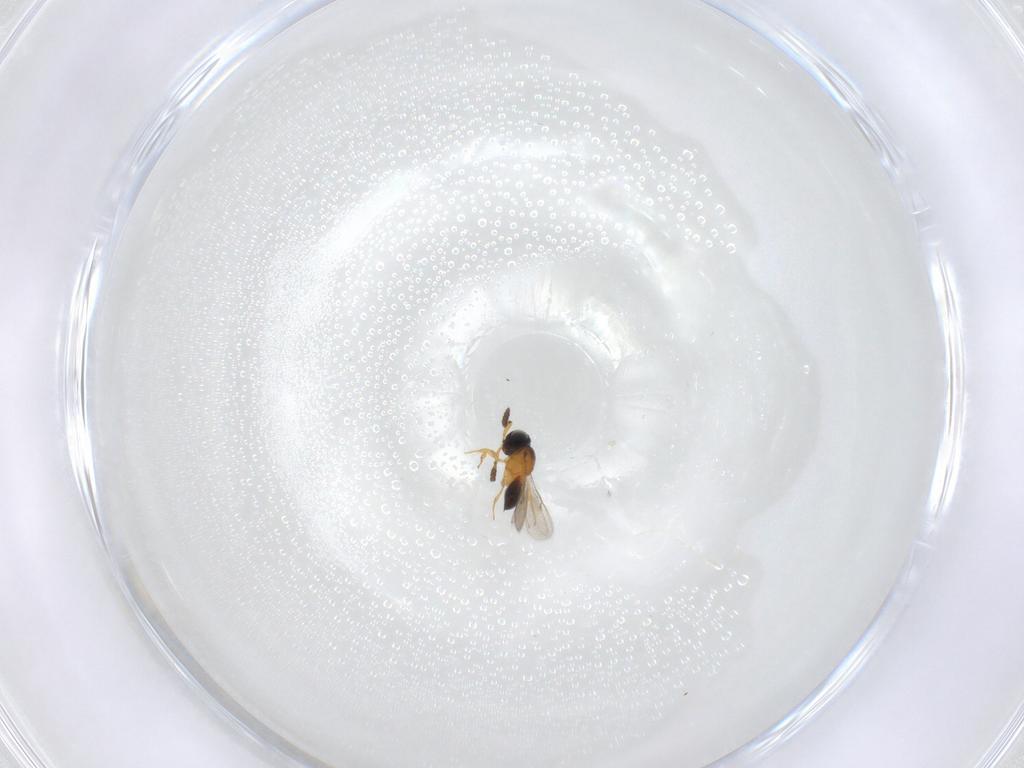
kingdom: Animalia
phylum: Arthropoda
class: Insecta
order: Hymenoptera
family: Scelionidae
